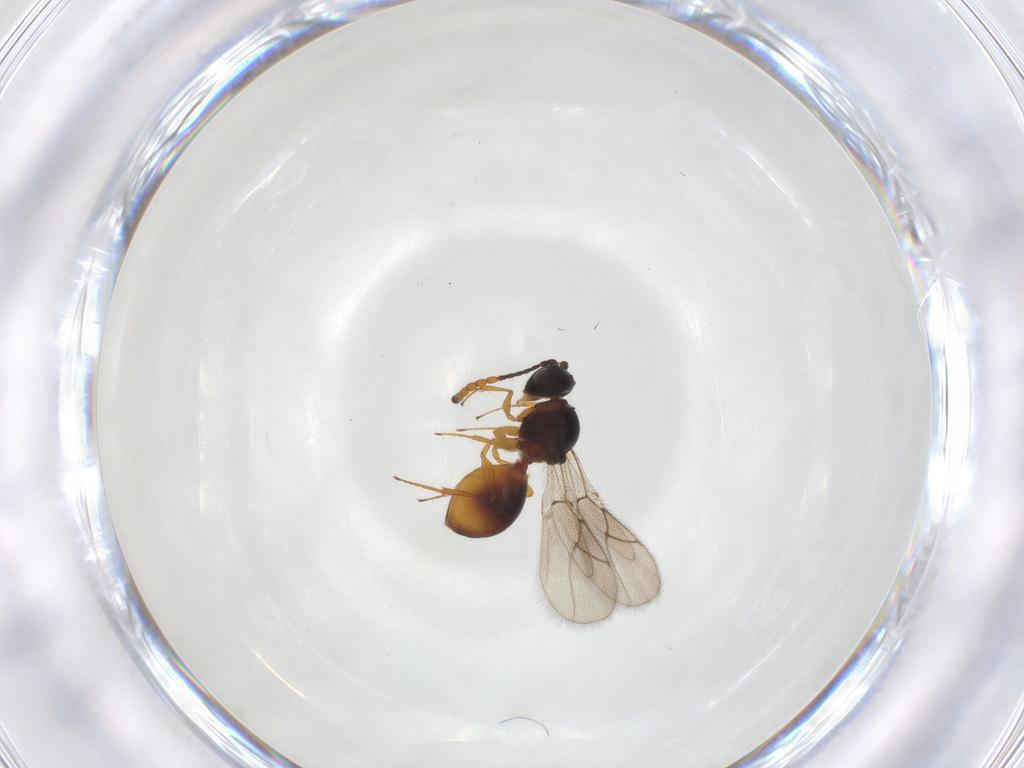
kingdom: Animalia
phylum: Arthropoda
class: Insecta
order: Hymenoptera
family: Figitidae
